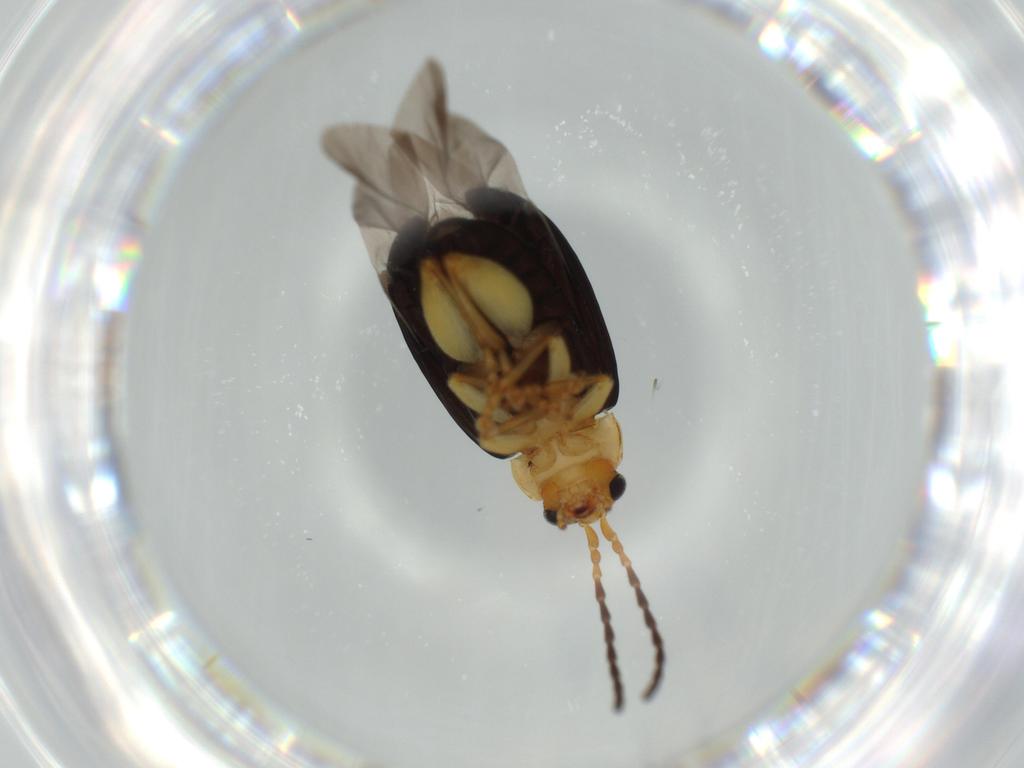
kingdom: Animalia
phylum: Arthropoda
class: Insecta
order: Coleoptera
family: Chrysomelidae
